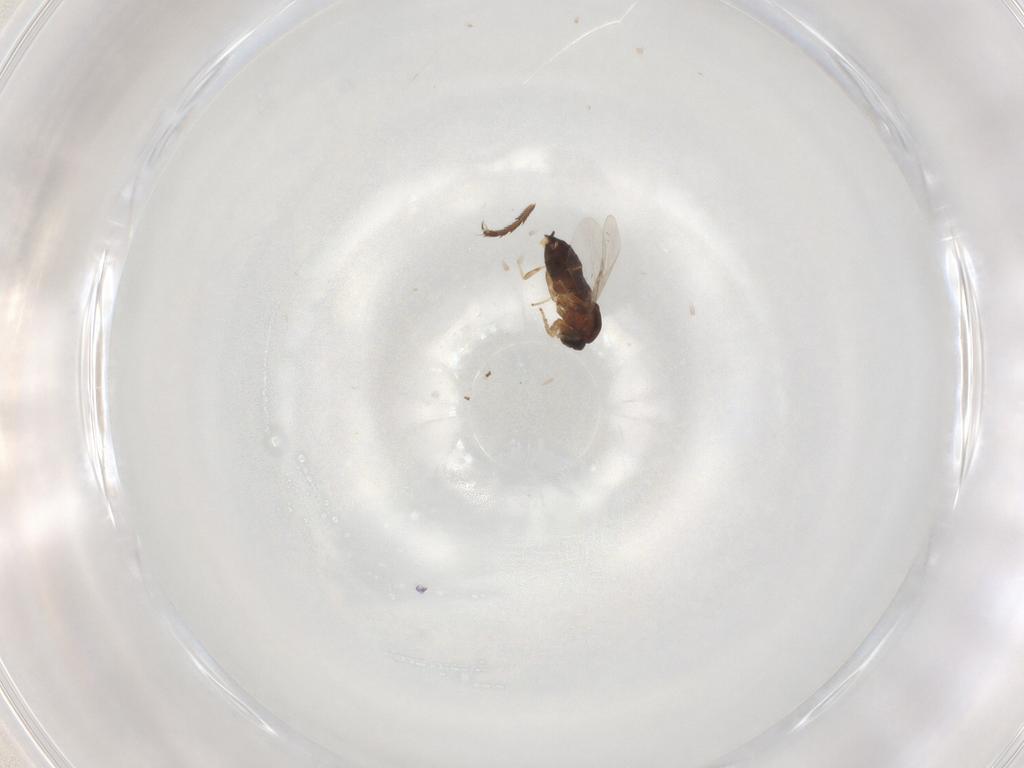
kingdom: Animalia
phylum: Arthropoda
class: Insecta
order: Diptera
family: Scatopsidae
